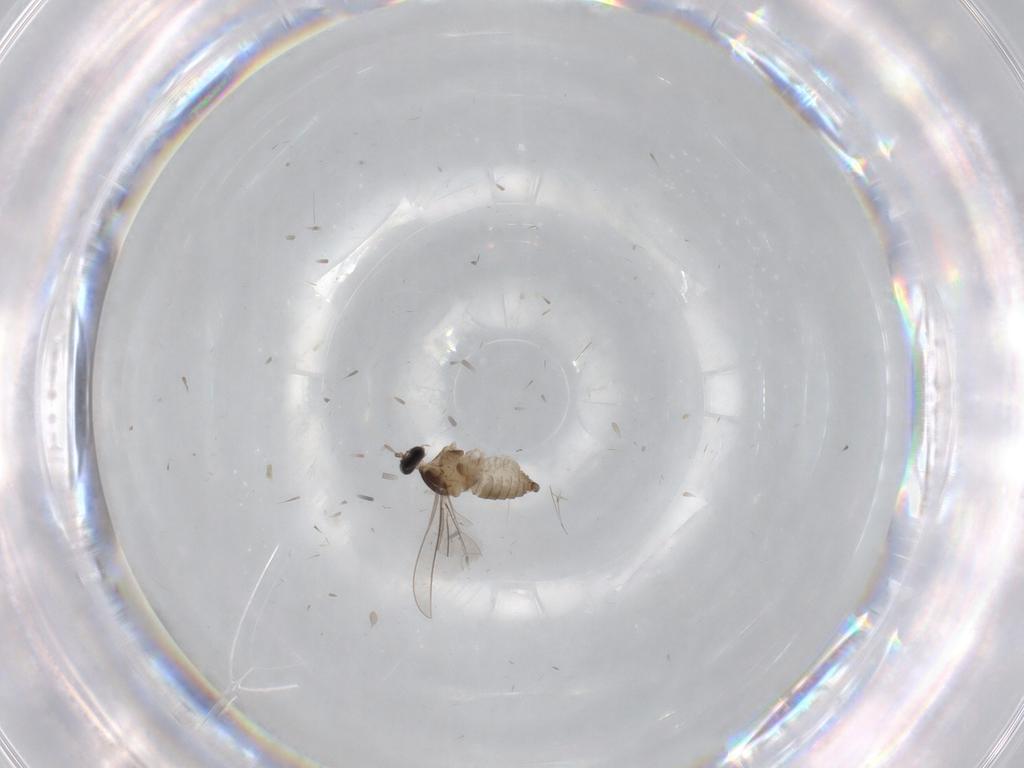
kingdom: Animalia
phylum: Arthropoda
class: Insecta
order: Diptera
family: Cecidomyiidae
